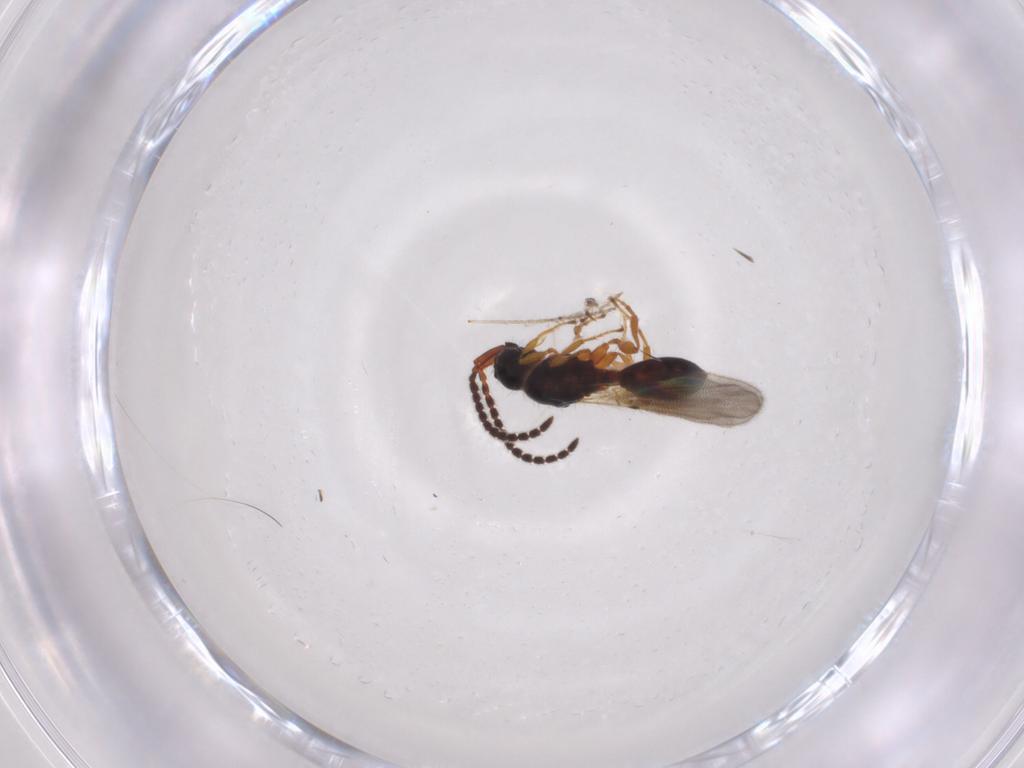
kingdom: Animalia
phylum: Arthropoda
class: Insecta
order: Hymenoptera
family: Diapriidae
